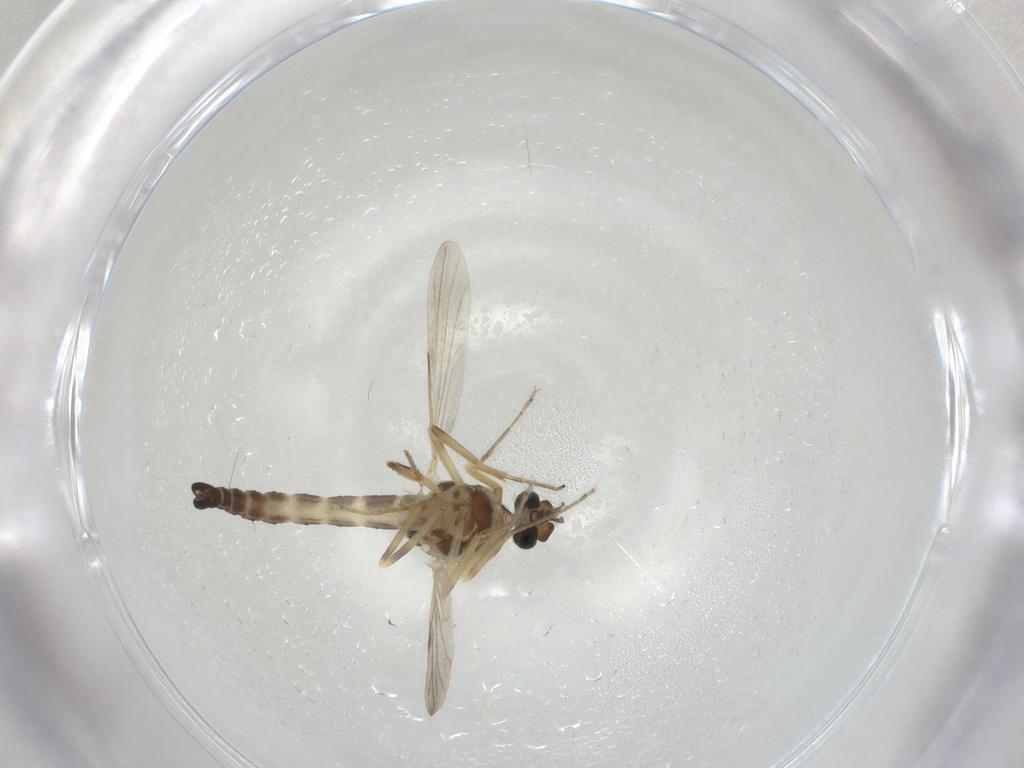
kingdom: Animalia
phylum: Arthropoda
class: Insecta
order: Diptera
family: Ceratopogonidae
